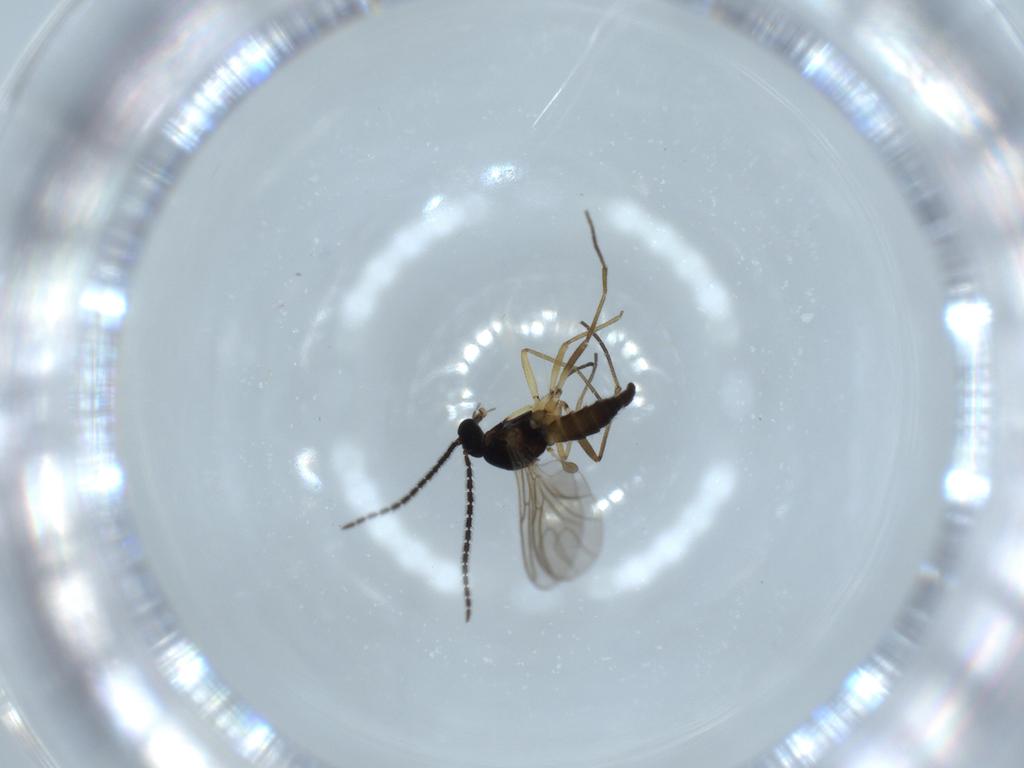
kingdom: Animalia
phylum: Arthropoda
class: Insecta
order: Diptera
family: Sciaridae
